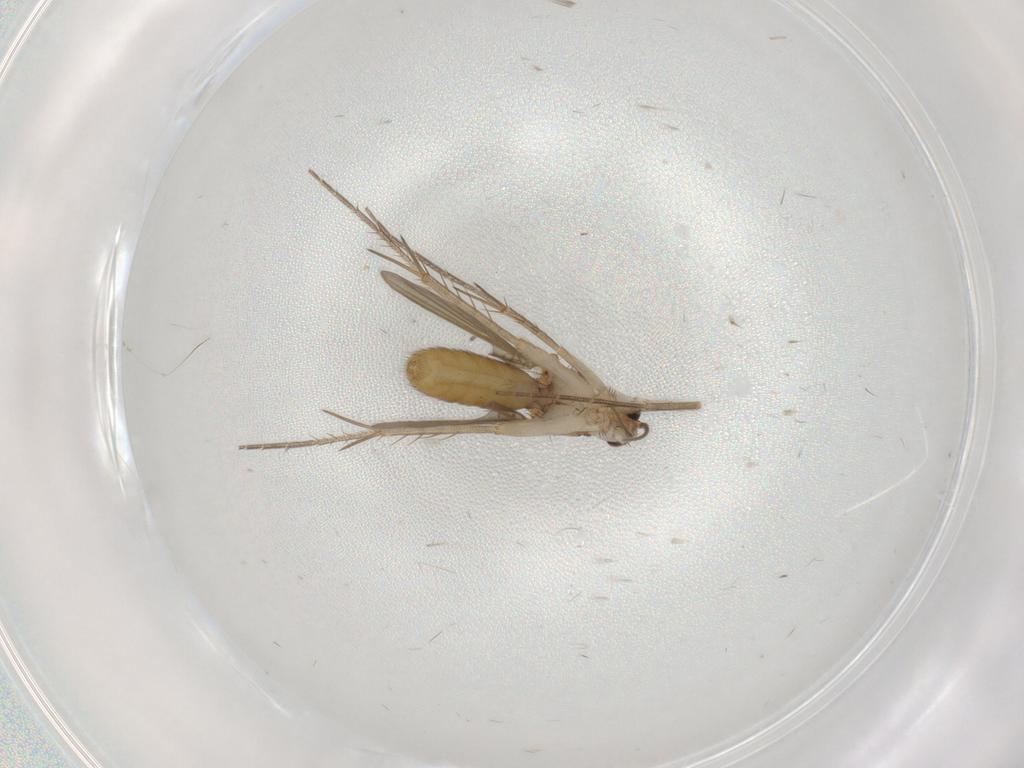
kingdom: Animalia
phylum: Arthropoda
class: Insecta
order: Diptera
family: Mycetophilidae
